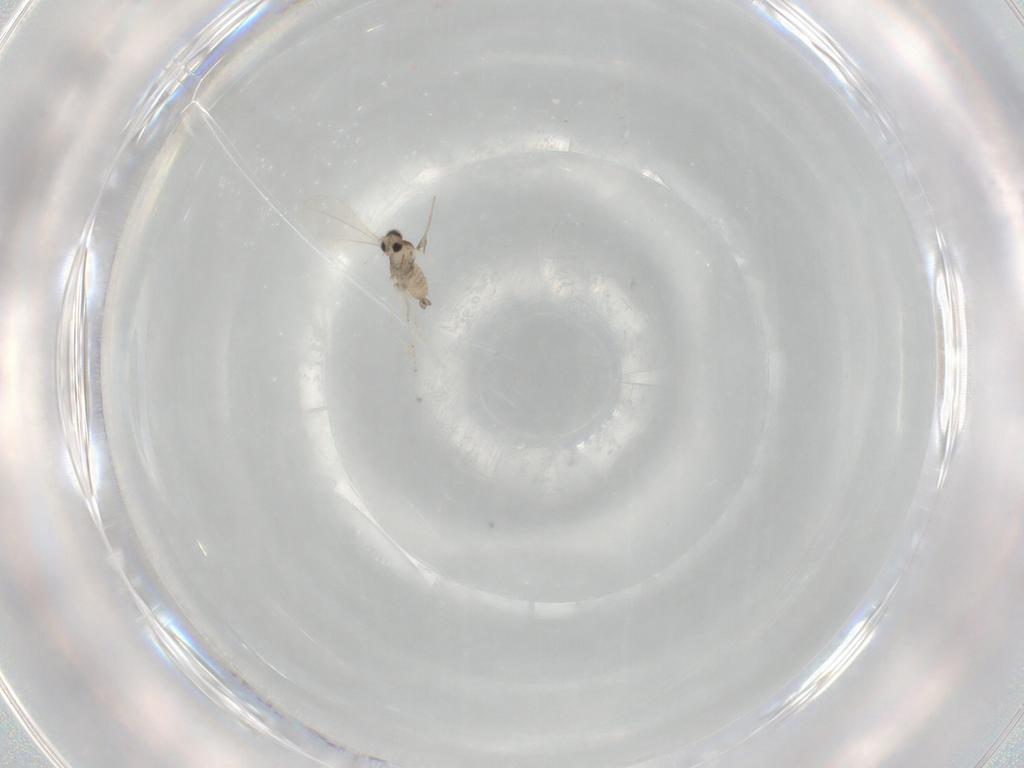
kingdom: Animalia
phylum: Arthropoda
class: Insecta
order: Diptera
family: Cecidomyiidae
